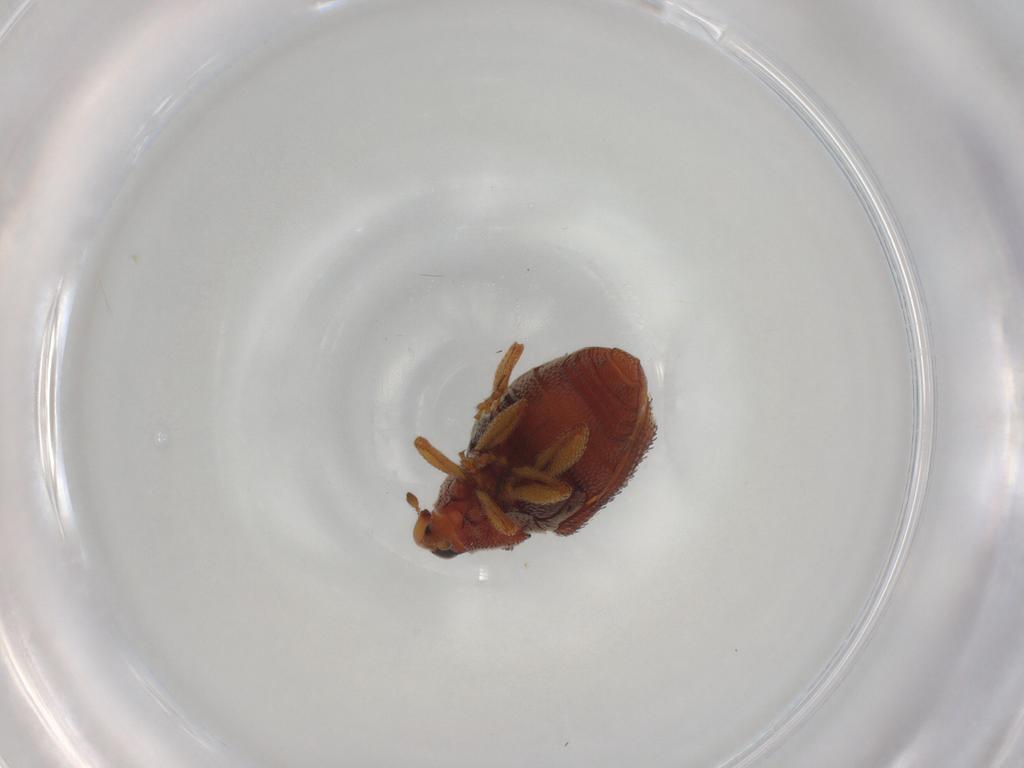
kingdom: Animalia
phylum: Arthropoda
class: Insecta
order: Coleoptera
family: Curculionidae
